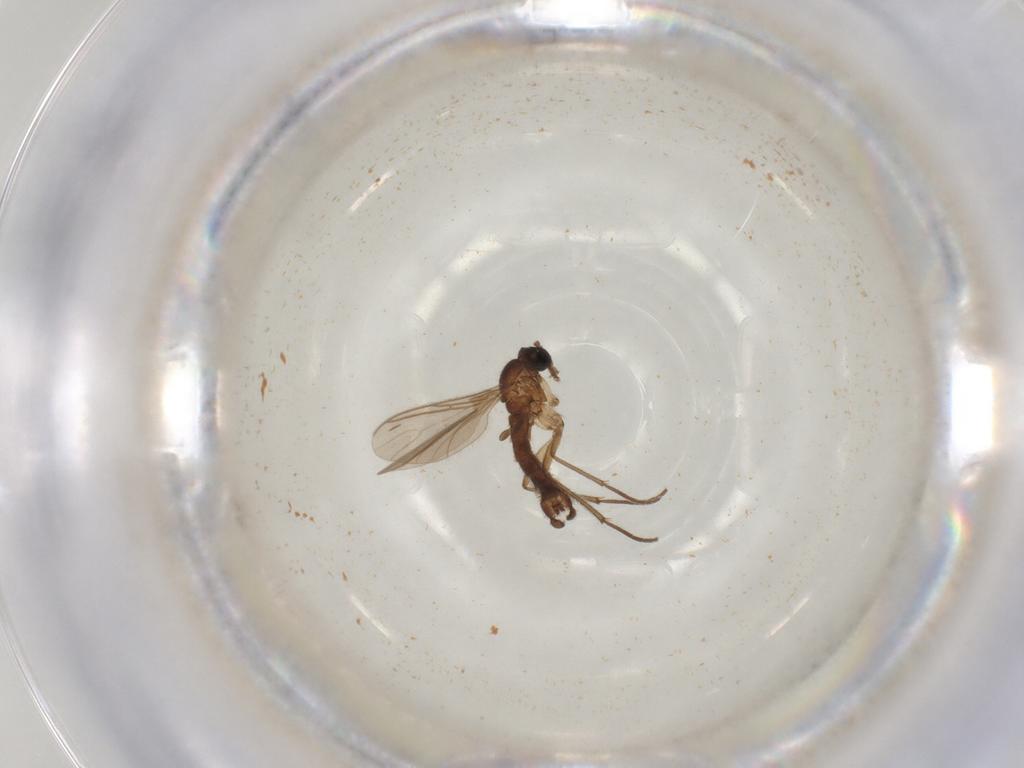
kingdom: Animalia
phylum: Arthropoda
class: Insecta
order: Diptera
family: Sciaridae
